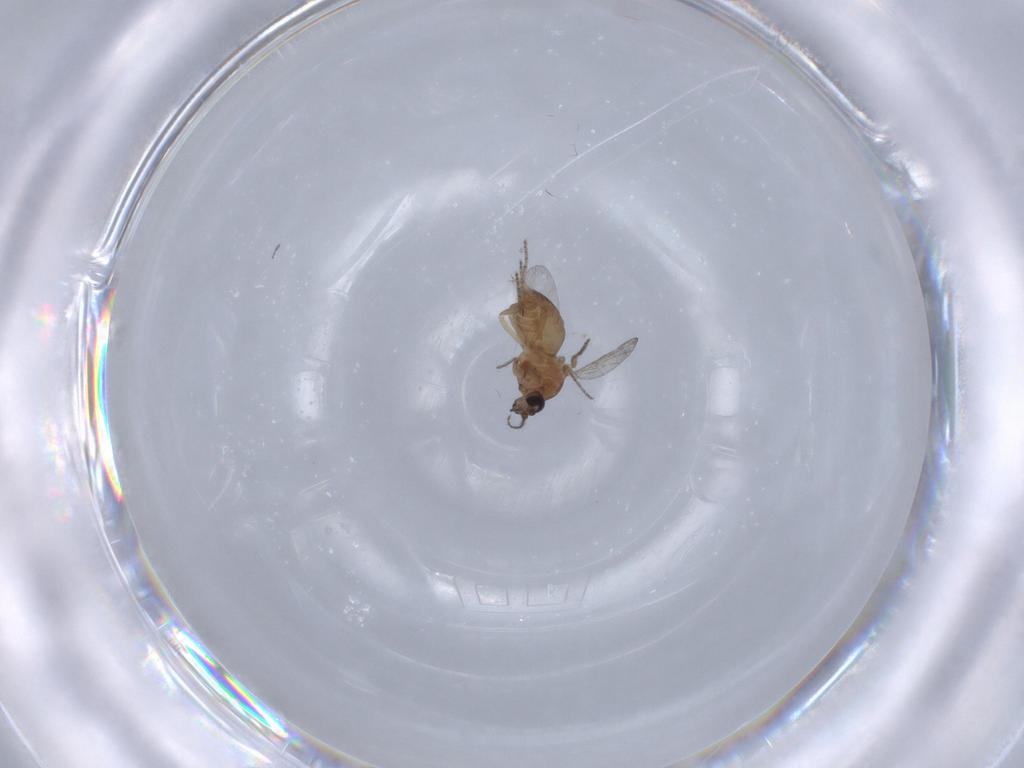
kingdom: Animalia
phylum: Arthropoda
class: Insecta
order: Diptera
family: Ceratopogonidae
